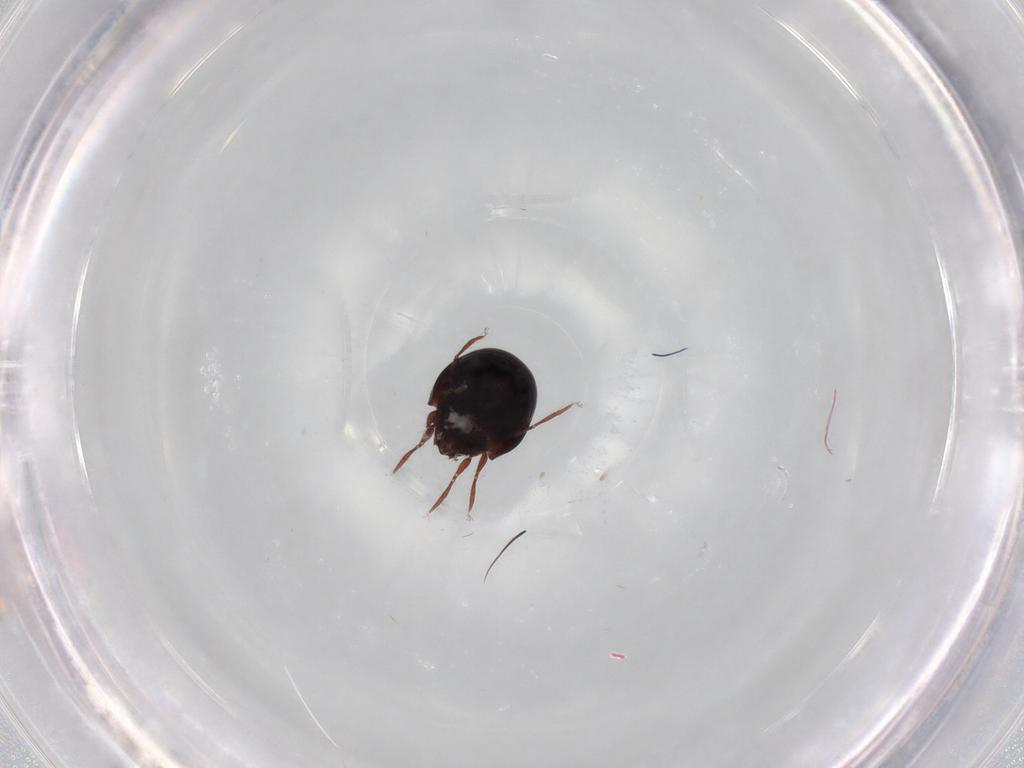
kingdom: Animalia
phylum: Arthropoda
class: Arachnida
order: Sarcoptiformes
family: Mochlozetidae
